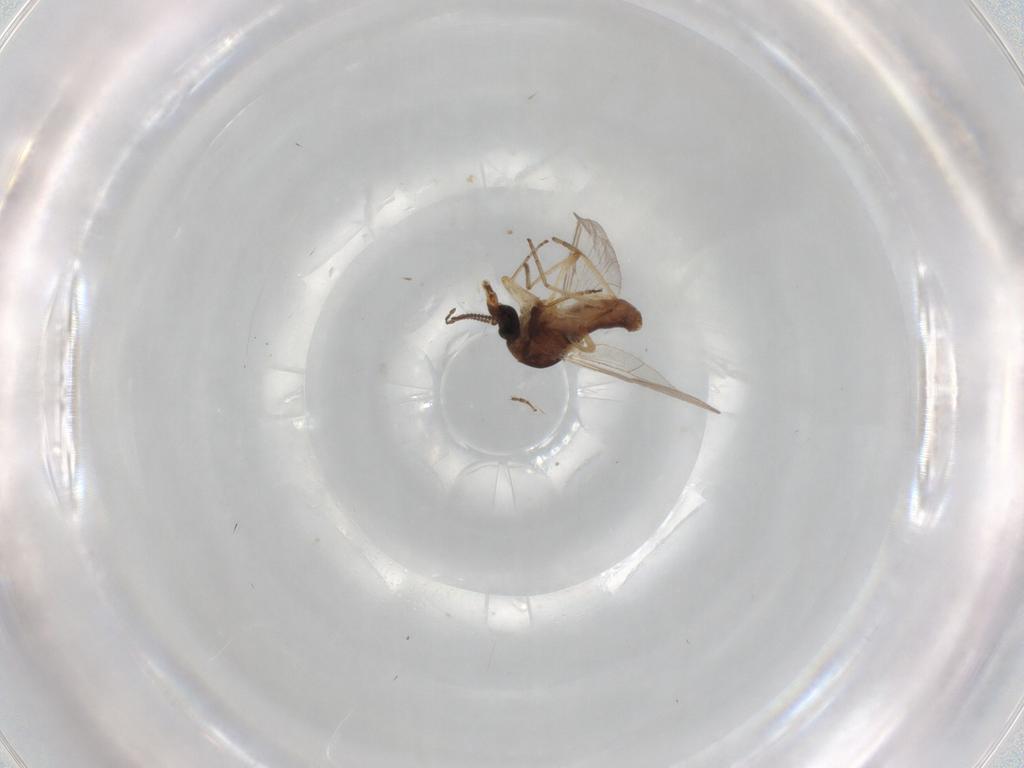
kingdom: Animalia
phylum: Arthropoda
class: Insecta
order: Diptera
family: Ceratopogonidae
